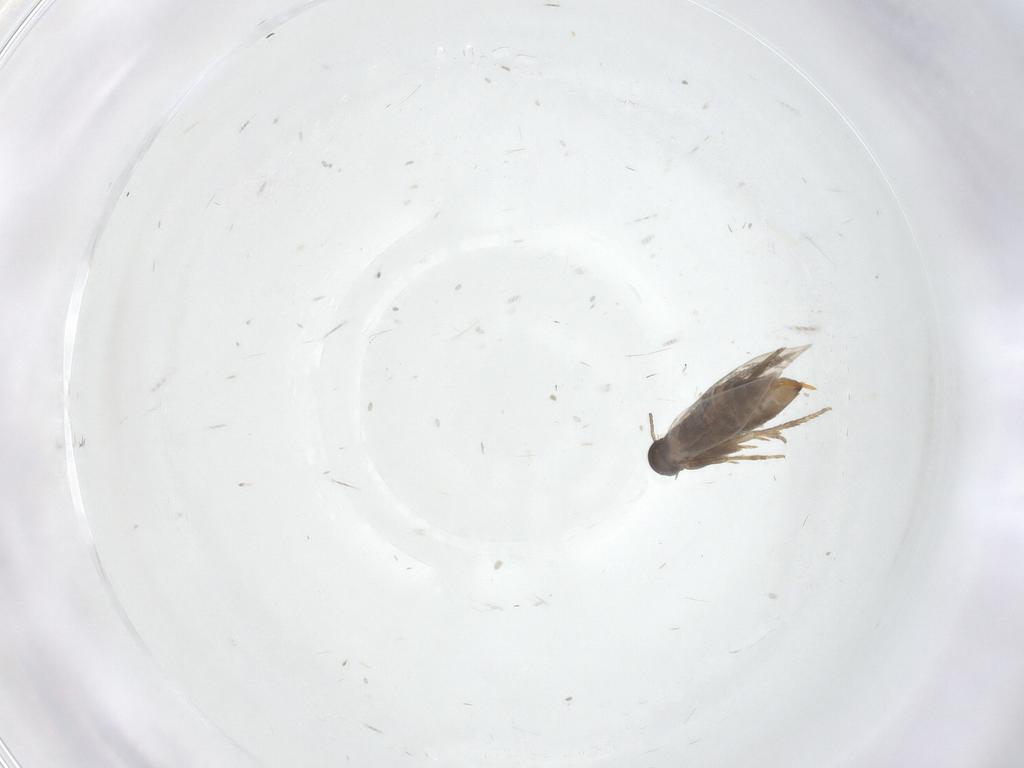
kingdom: Animalia
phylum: Arthropoda
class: Insecta
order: Lepidoptera
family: Heliozelidae
